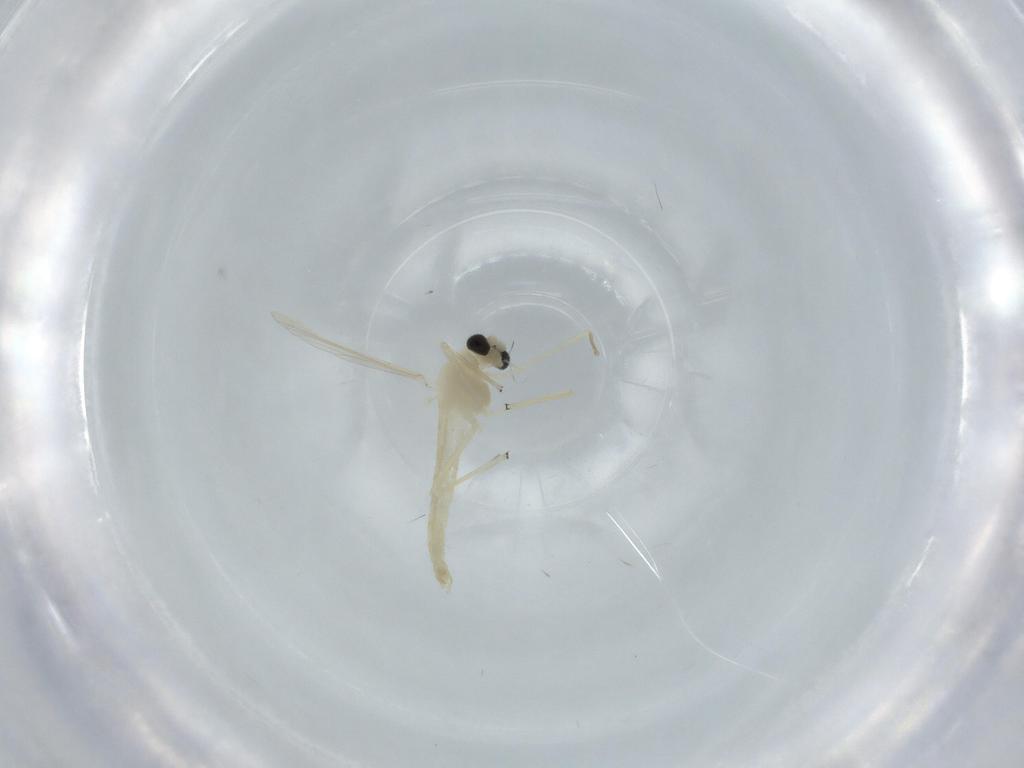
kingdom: Animalia
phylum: Arthropoda
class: Insecta
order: Diptera
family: Chironomidae
